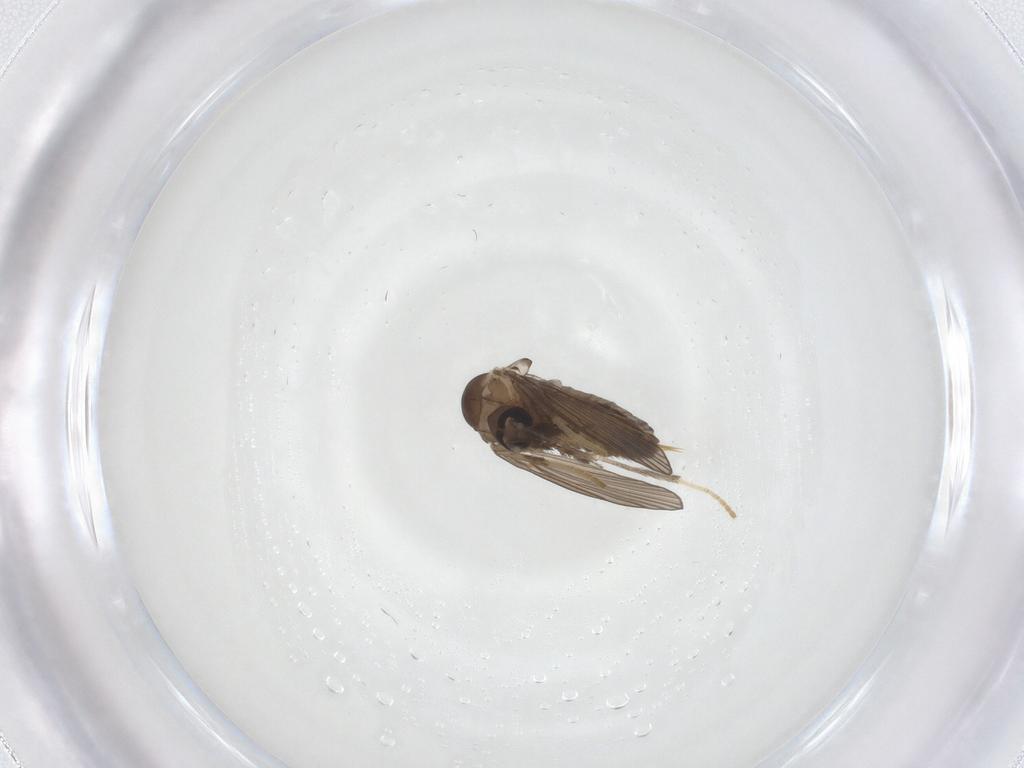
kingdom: Animalia
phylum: Arthropoda
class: Insecta
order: Diptera
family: Psychodidae
